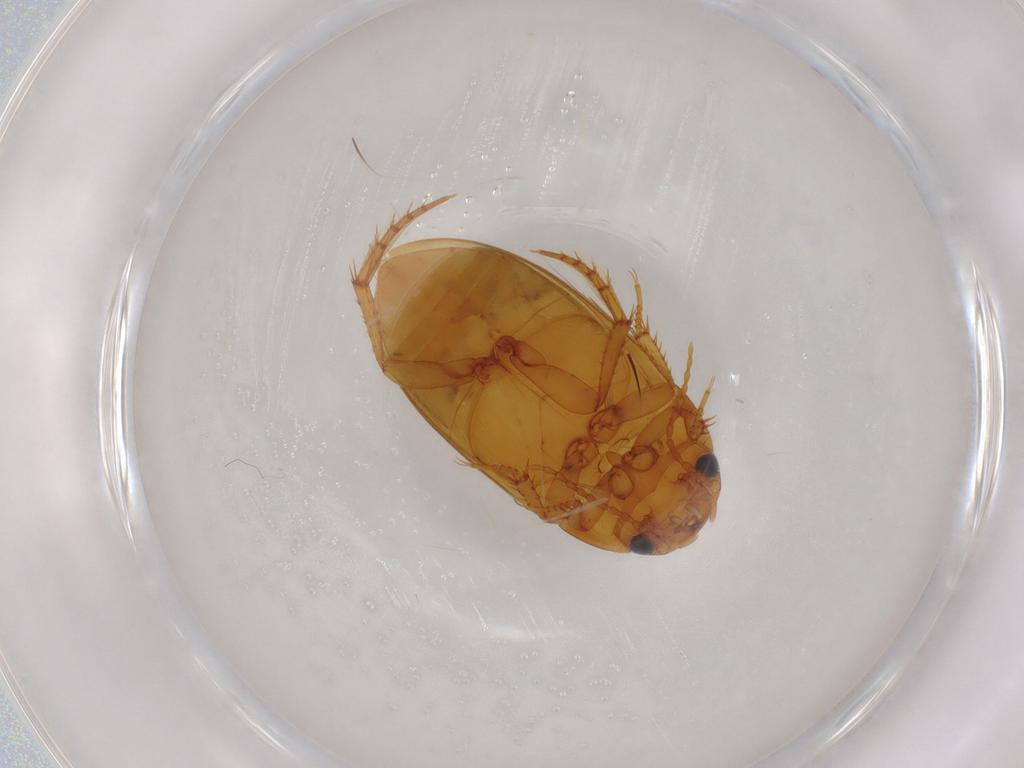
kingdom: Animalia
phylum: Arthropoda
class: Insecta
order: Coleoptera
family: Dytiscidae
